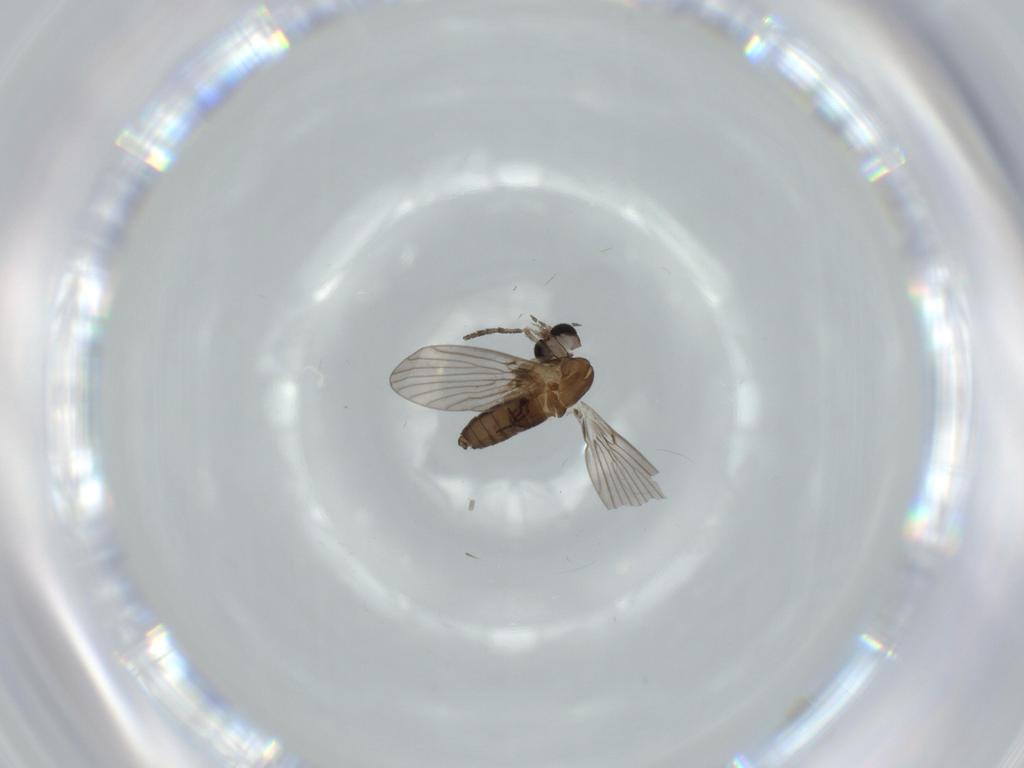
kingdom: Animalia
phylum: Arthropoda
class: Insecta
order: Diptera
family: Psychodidae
